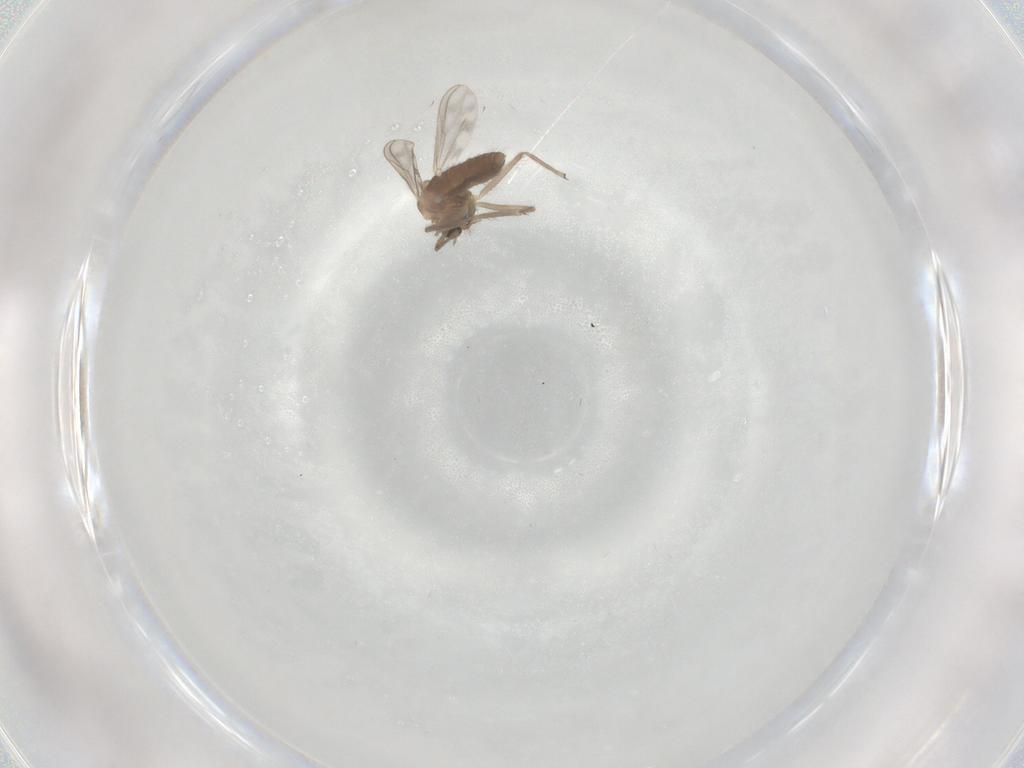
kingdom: Animalia
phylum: Arthropoda
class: Insecta
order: Diptera
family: Chironomidae
